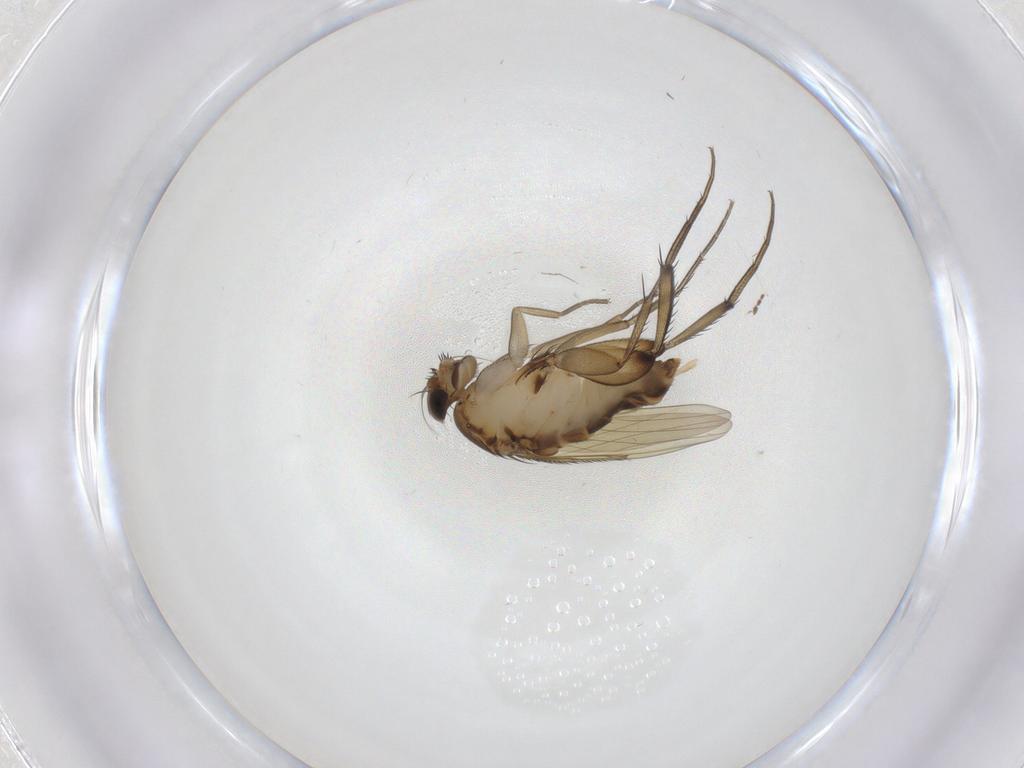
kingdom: Animalia
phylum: Arthropoda
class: Insecta
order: Diptera
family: Phoridae
